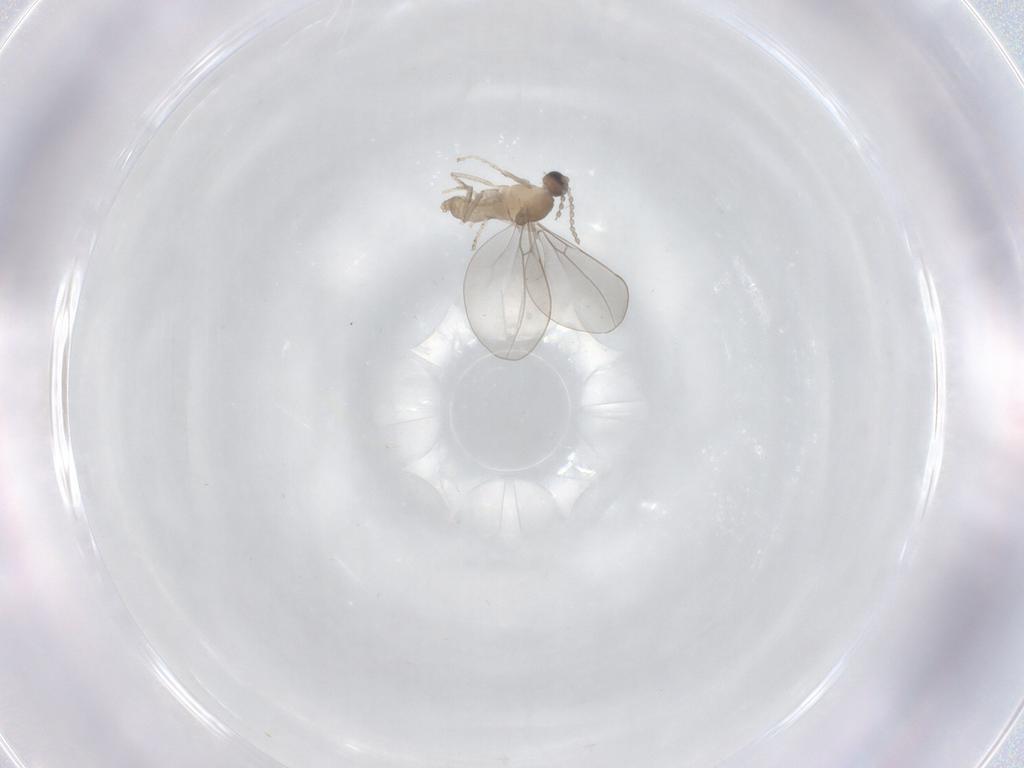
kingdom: Animalia
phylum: Arthropoda
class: Insecta
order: Diptera
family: Cecidomyiidae
